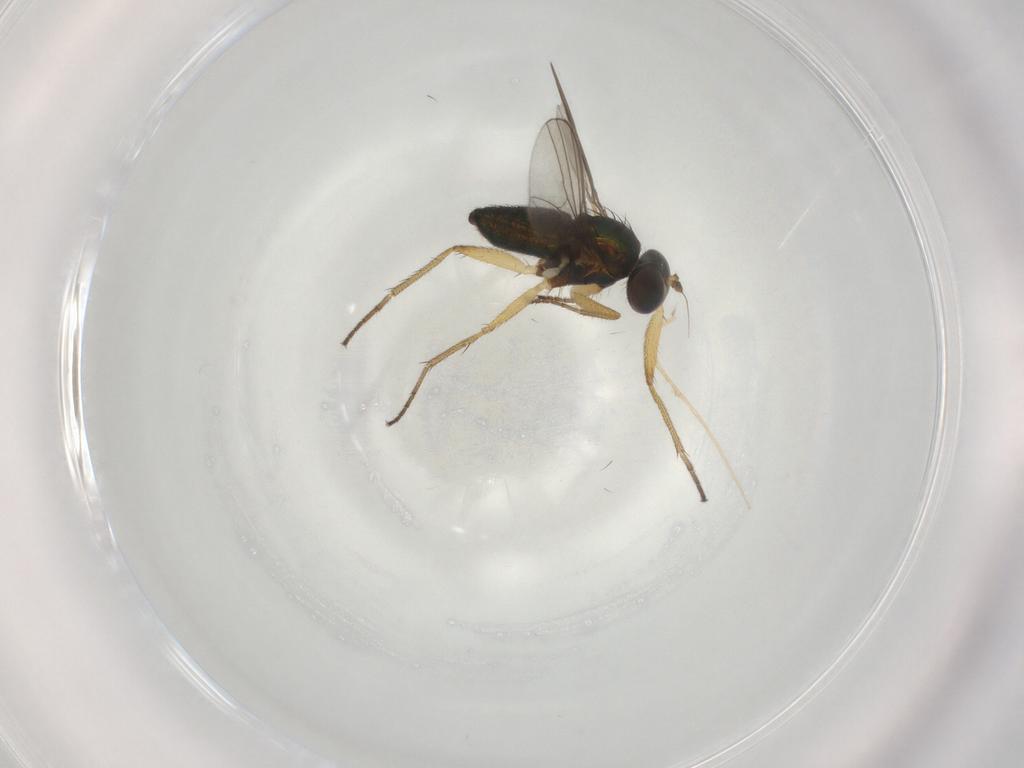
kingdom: Animalia
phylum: Arthropoda
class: Insecta
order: Diptera
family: Dolichopodidae
